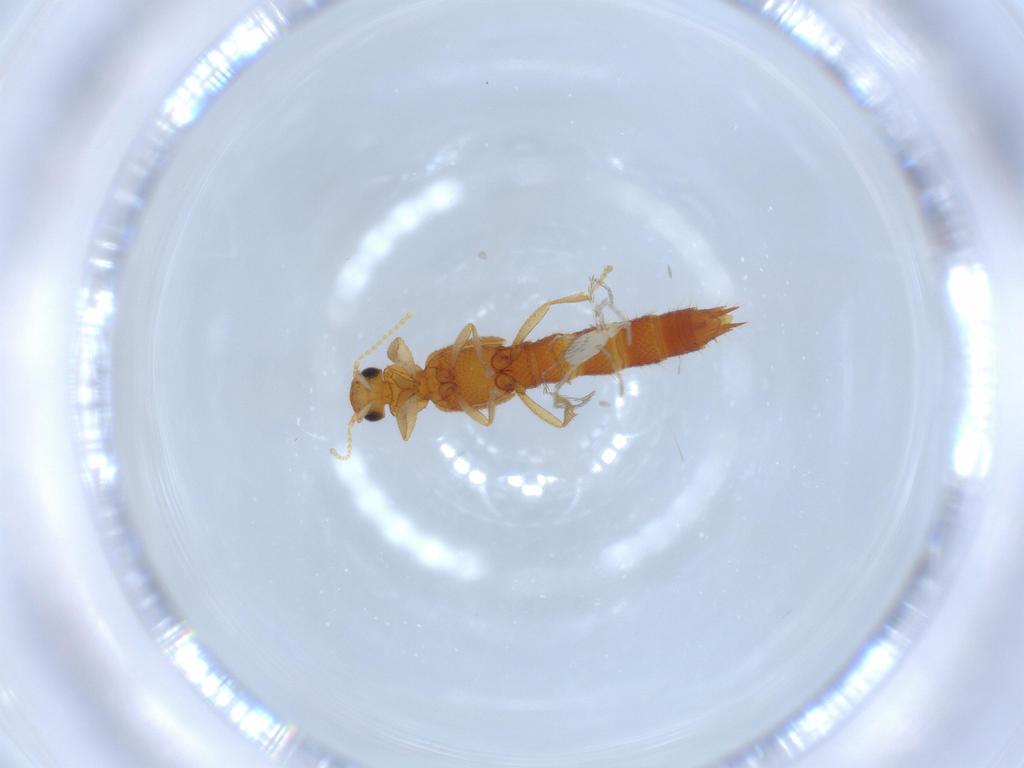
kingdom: Animalia
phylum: Arthropoda
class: Insecta
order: Coleoptera
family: Staphylinidae
